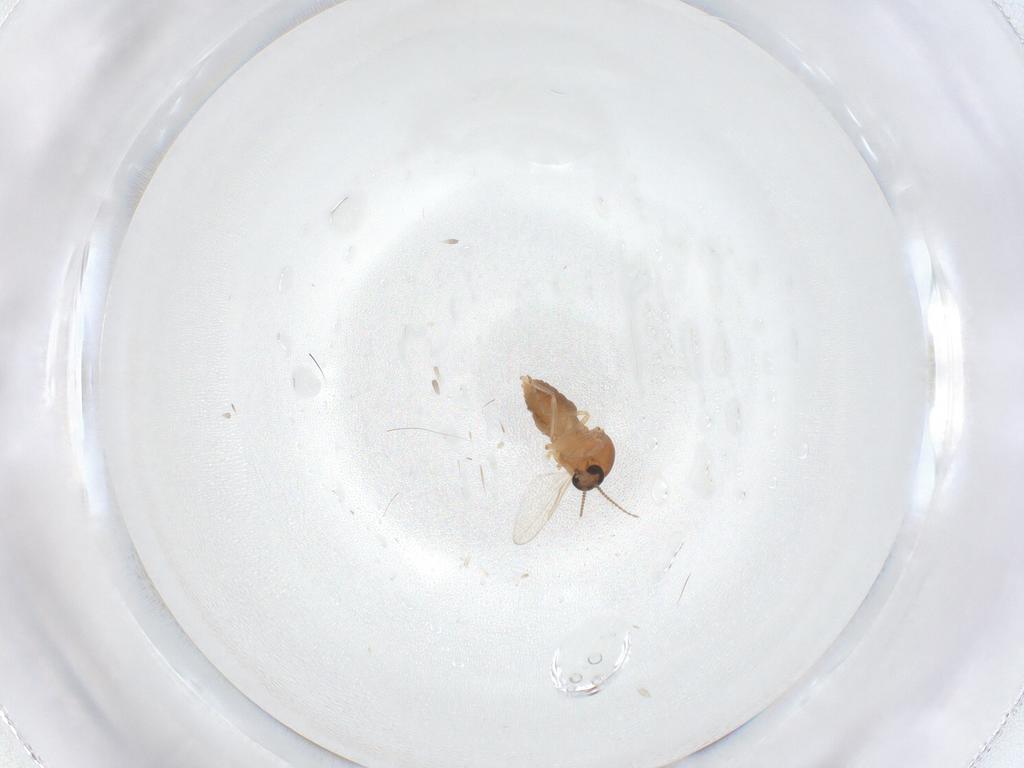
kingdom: Animalia
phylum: Arthropoda
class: Insecta
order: Diptera
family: Ceratopogonidae
